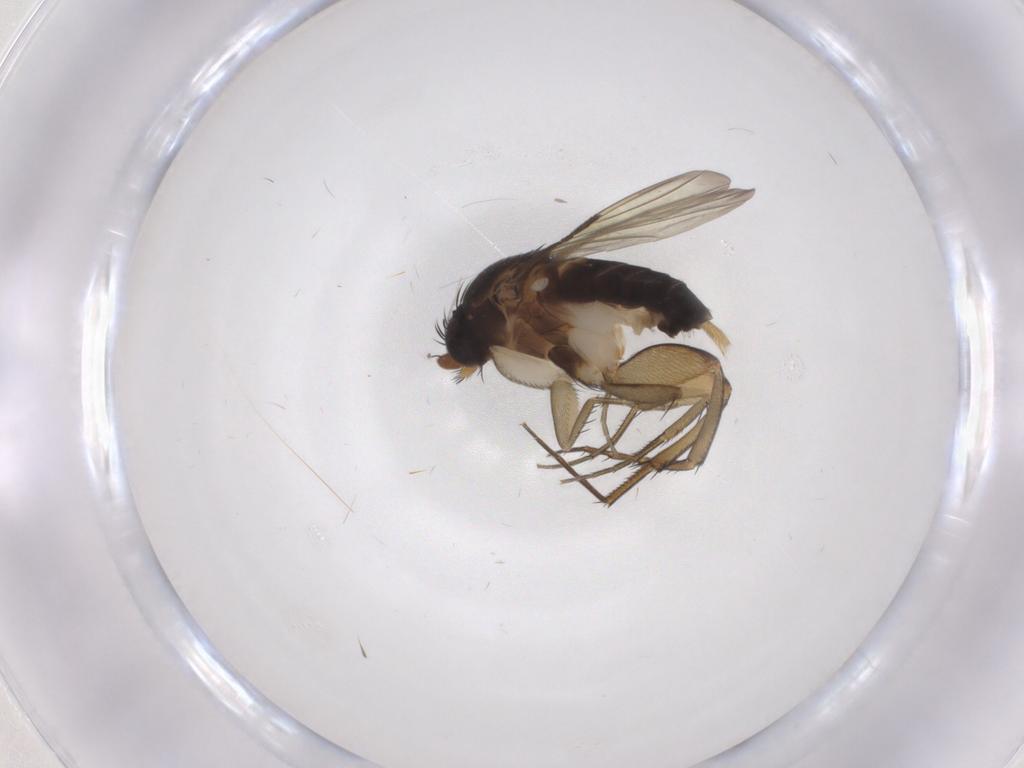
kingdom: Animalia
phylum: Arthropoda
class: Insecta
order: Diptera
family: Phoridae
